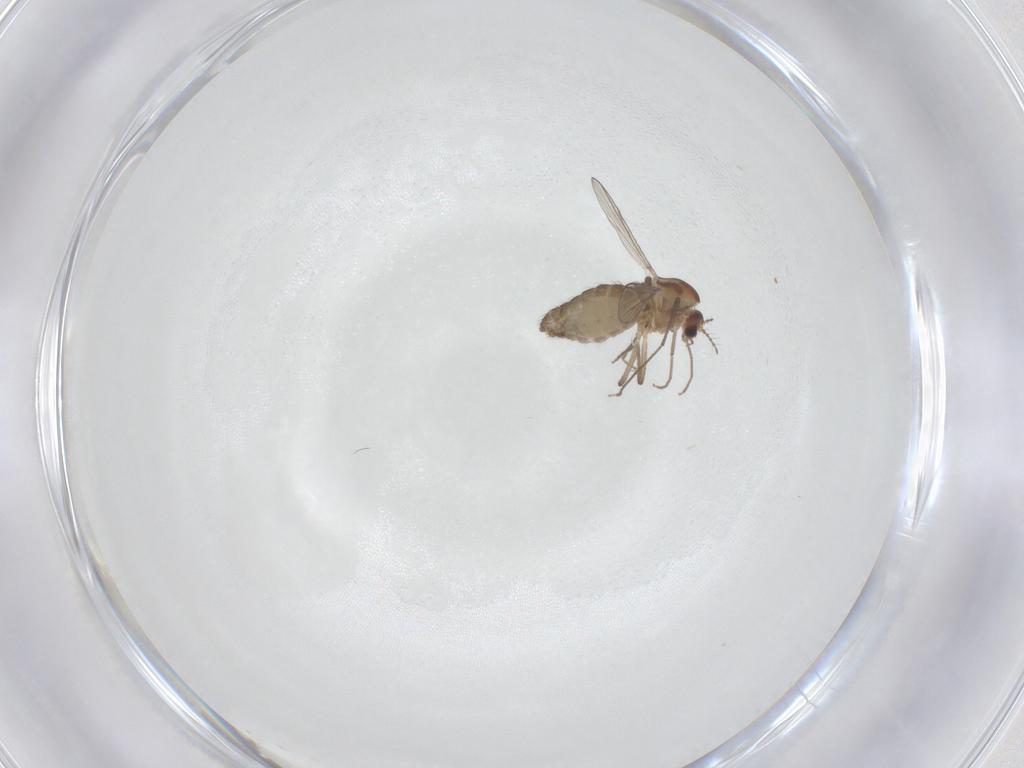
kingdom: Animalia
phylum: Arthropoda
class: Insecta
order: Diptera
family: Chironomidae
